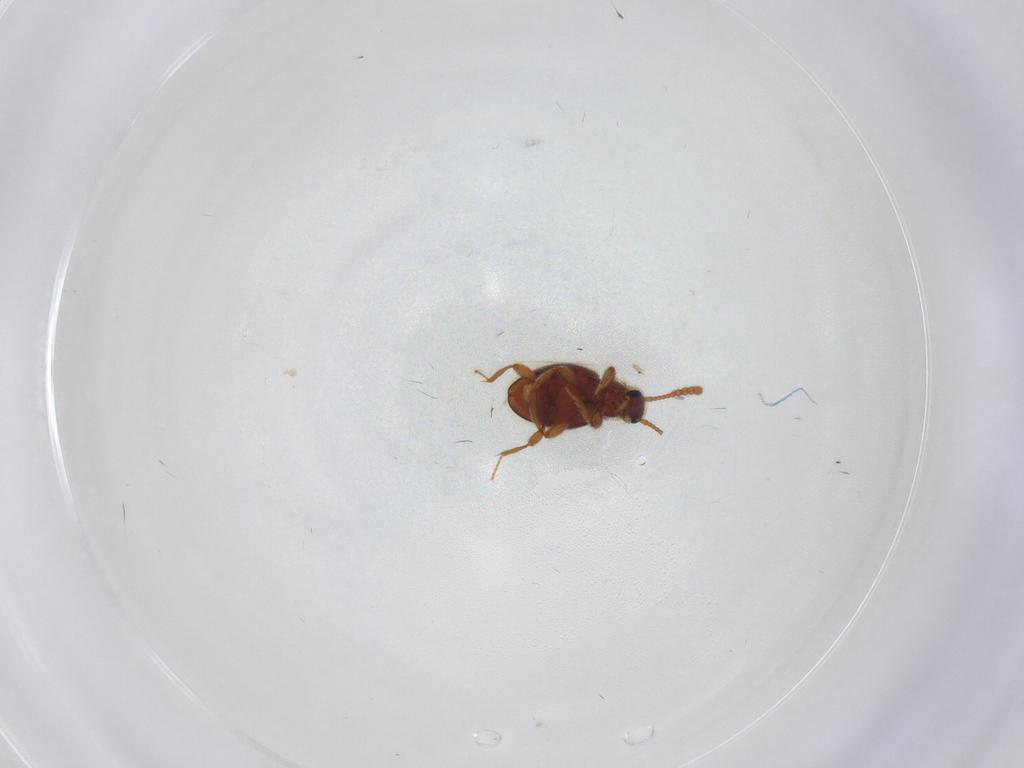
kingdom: Animalia
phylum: Arthropoda
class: Insecta
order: Coleoptera
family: Staphylinidae
